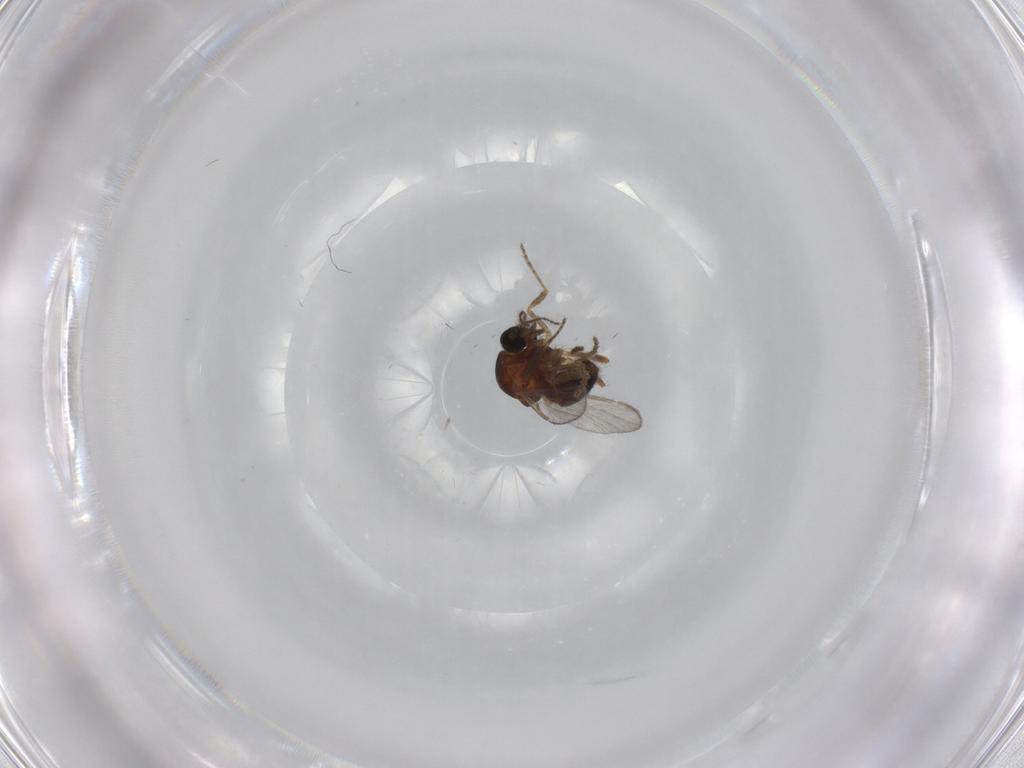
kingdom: Animalia
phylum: Arthropoda
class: Insecta
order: Diptera
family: Ceratopogonidae
